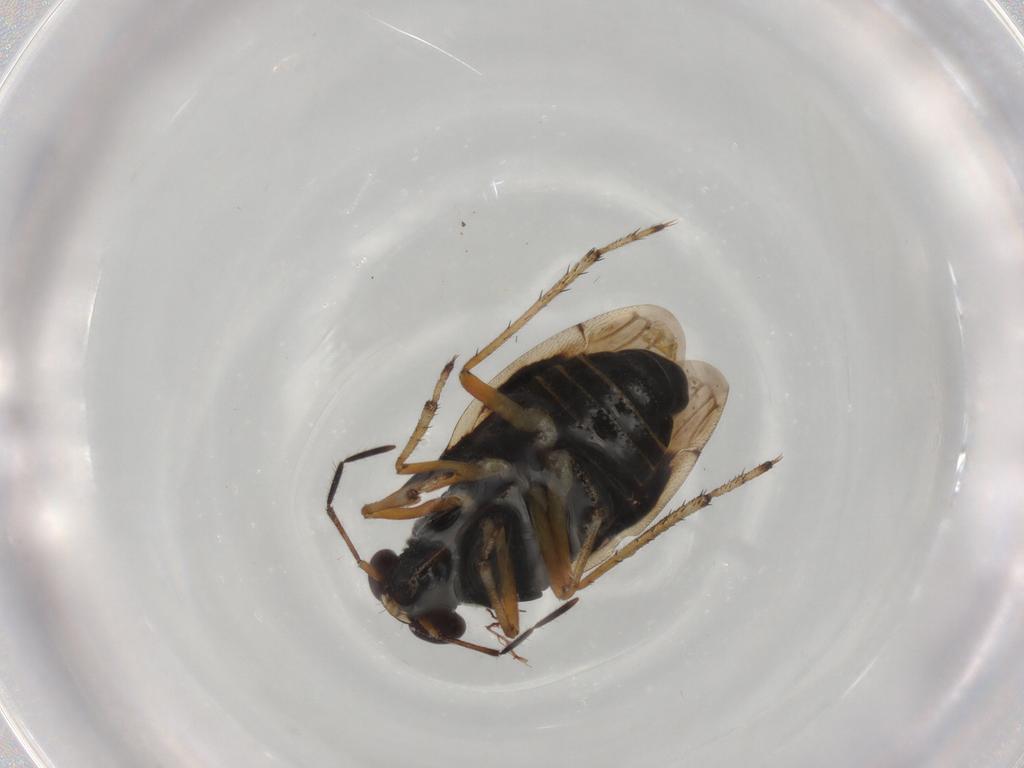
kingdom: Animalia
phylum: Arthropoda
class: Insecta
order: Hemiptera
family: Saldidae
